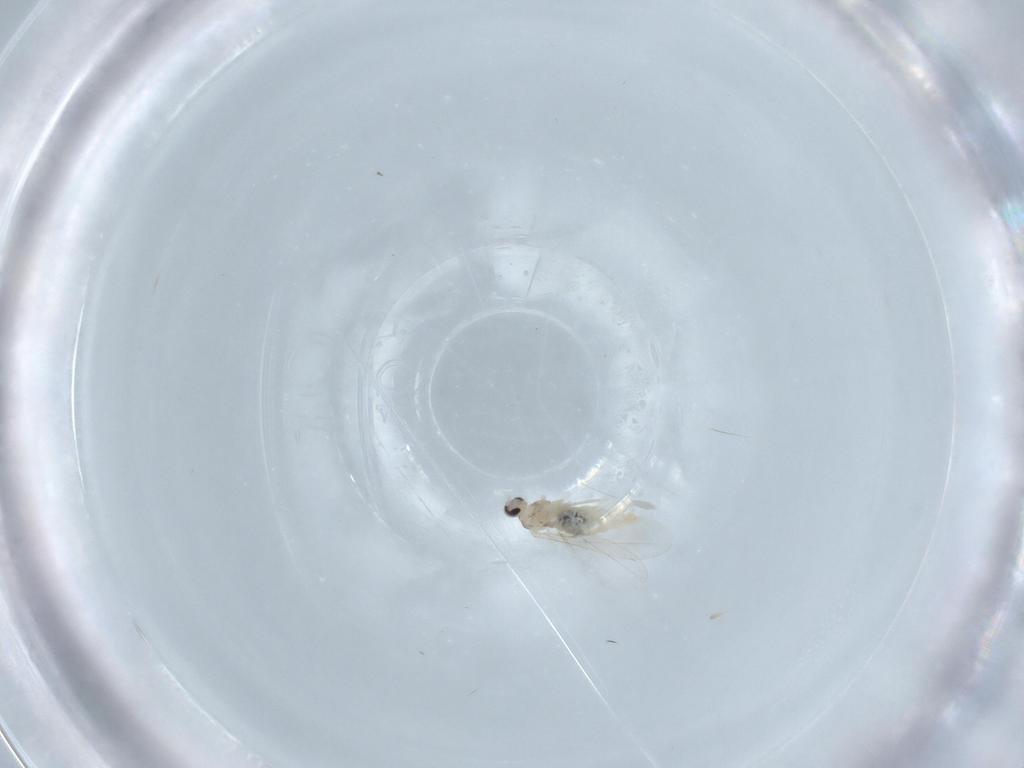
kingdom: Animalia
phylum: Arthropoda
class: Insecta
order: Diptera
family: Cecidomyiidae
